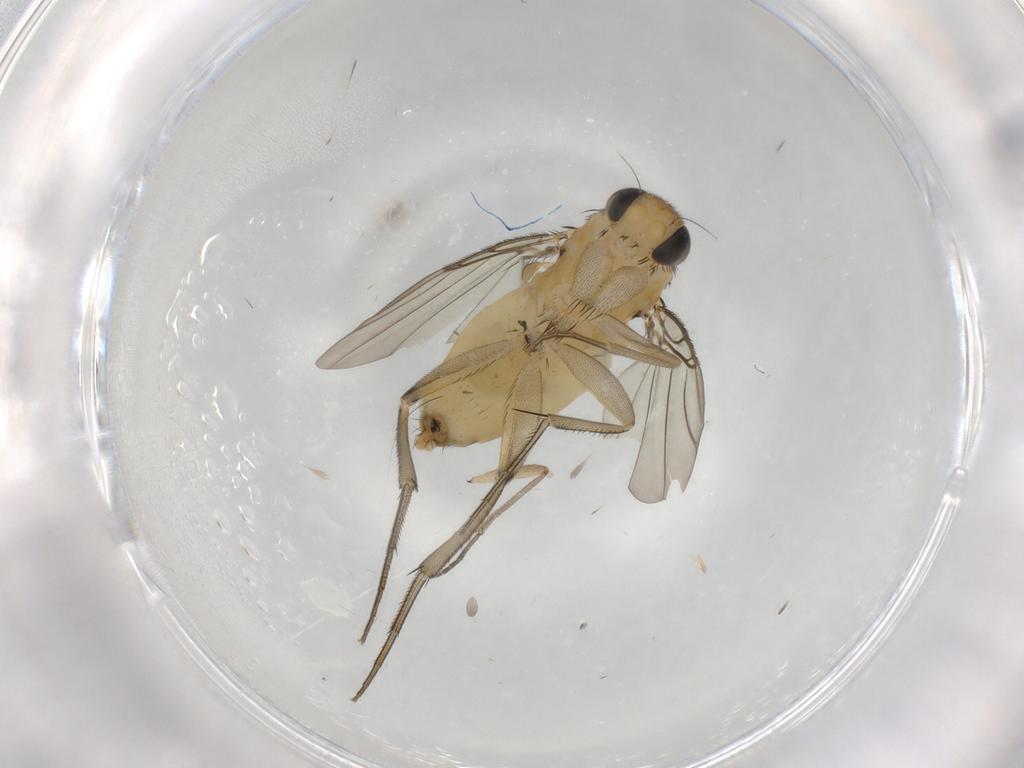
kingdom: Animalia
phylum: Arthropoda
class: Insecta
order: Diptera
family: Phoridae
